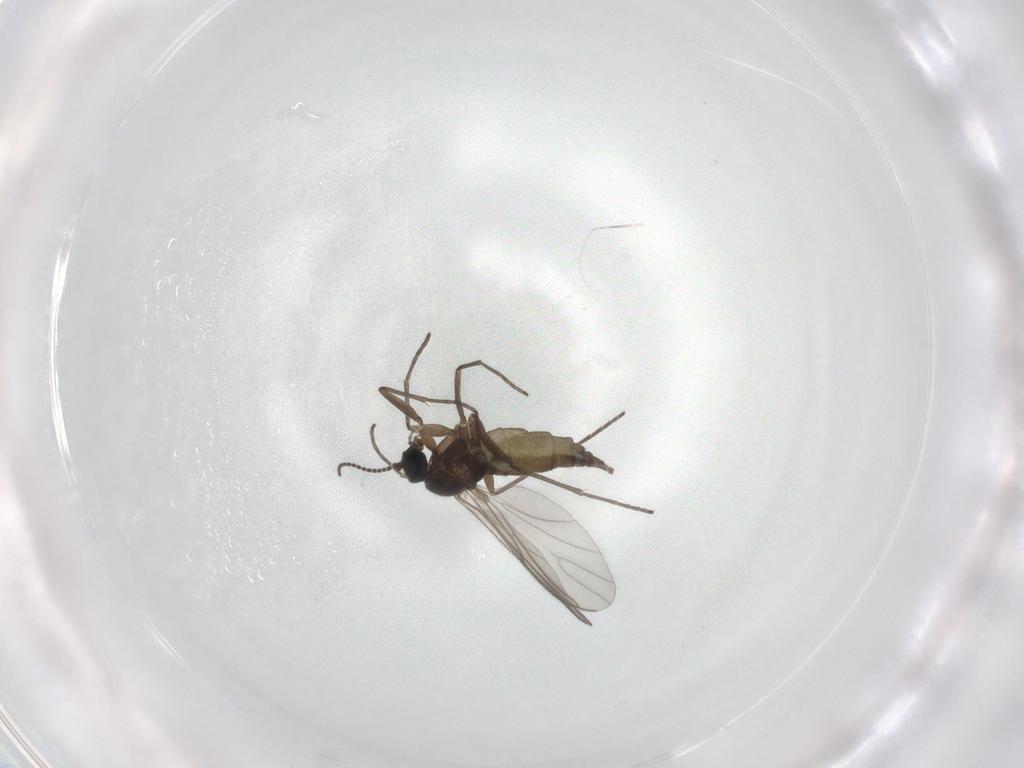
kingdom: Animalia
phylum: Arthropoda
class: Insecta
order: Diptera
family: Sciaridae
